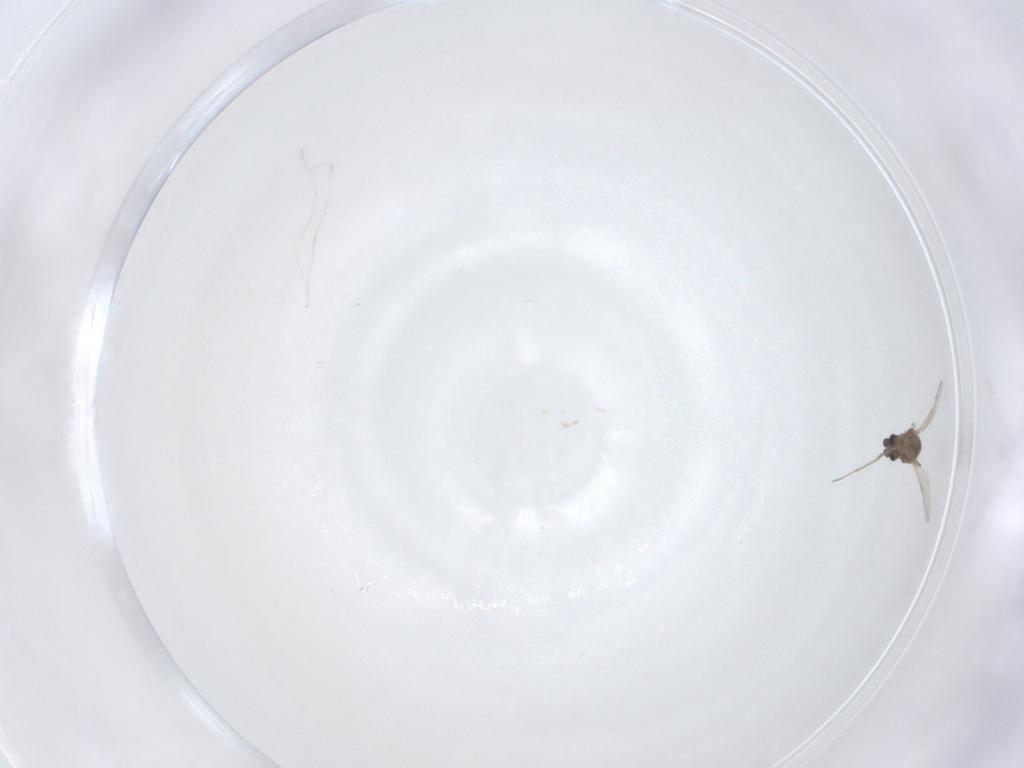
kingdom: Animalia
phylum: Arthropoda
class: Insecta
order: Diptera
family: Ceratopogonidae
